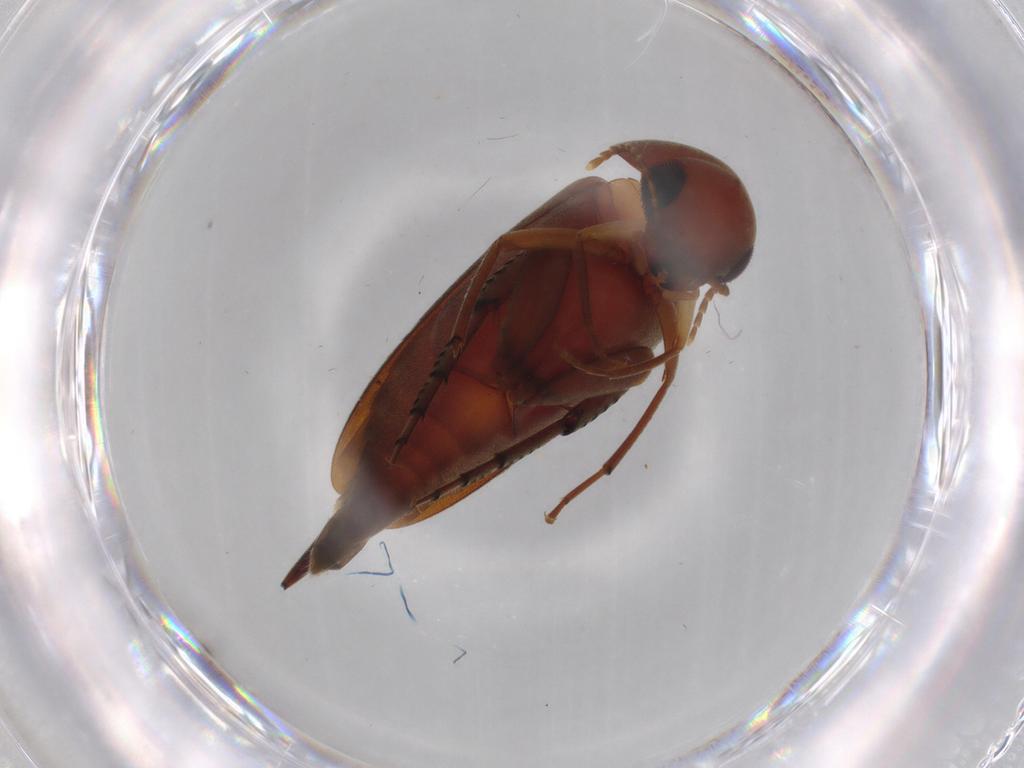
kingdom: Animalia
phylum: Arthropoda
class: Insecta
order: Coleoptera
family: Mordellidae
